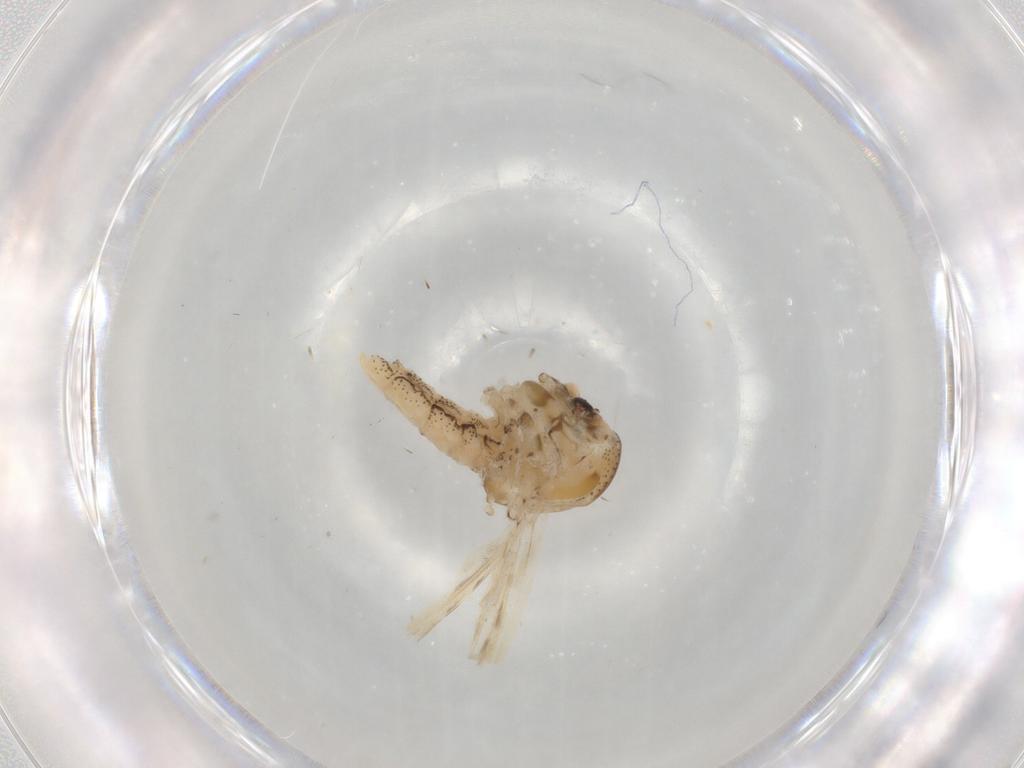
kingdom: Animalia
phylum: Arthropoda
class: Insecta
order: Diptera
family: Chaoboridae
